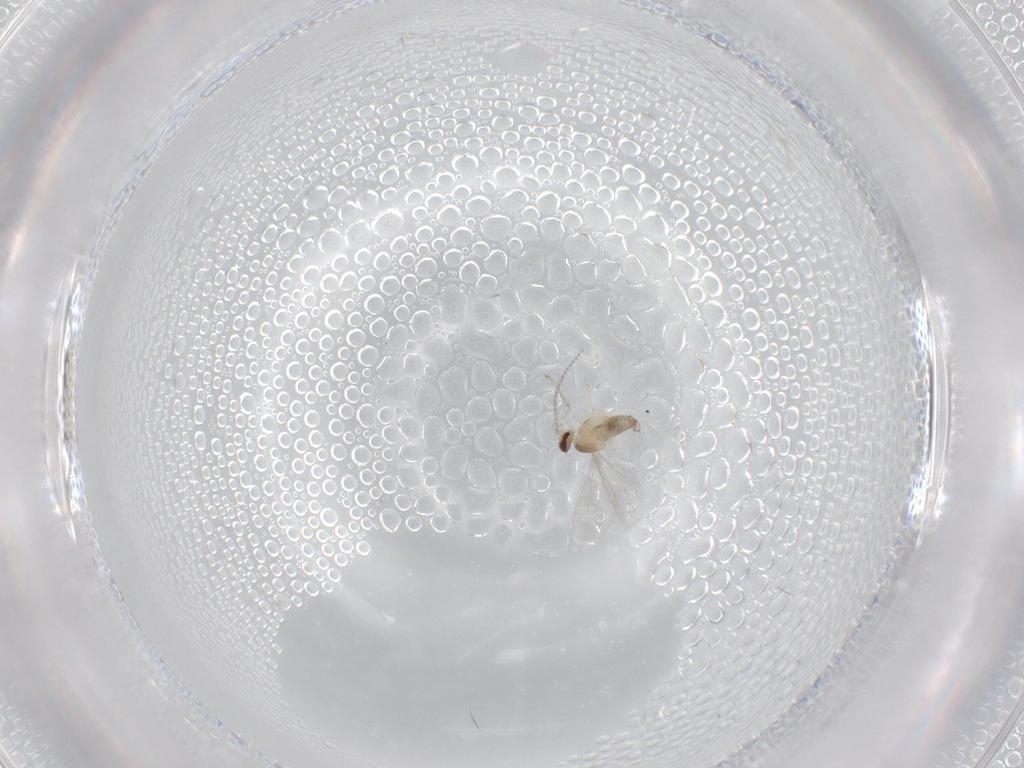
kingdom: Animalia
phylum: Arthropoda
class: Insecta
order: Diptera
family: Cecidomyiidae
